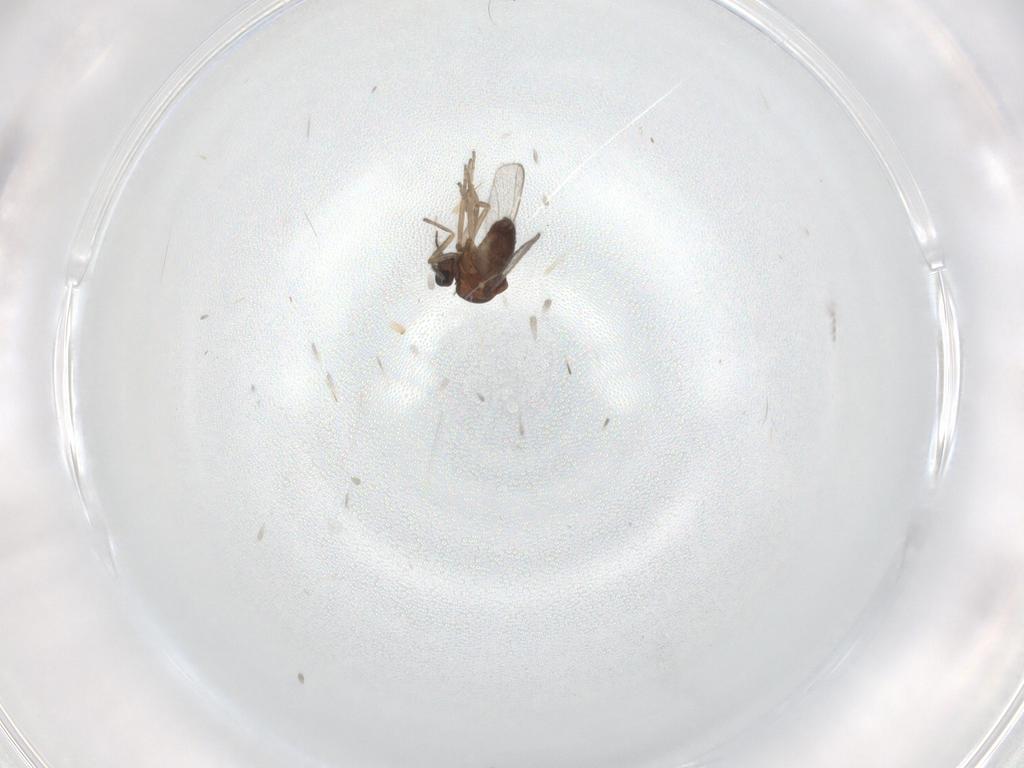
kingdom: Animalia
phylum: Arthropoda
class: Insecta
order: Diptera
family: Ceratopogonidae
